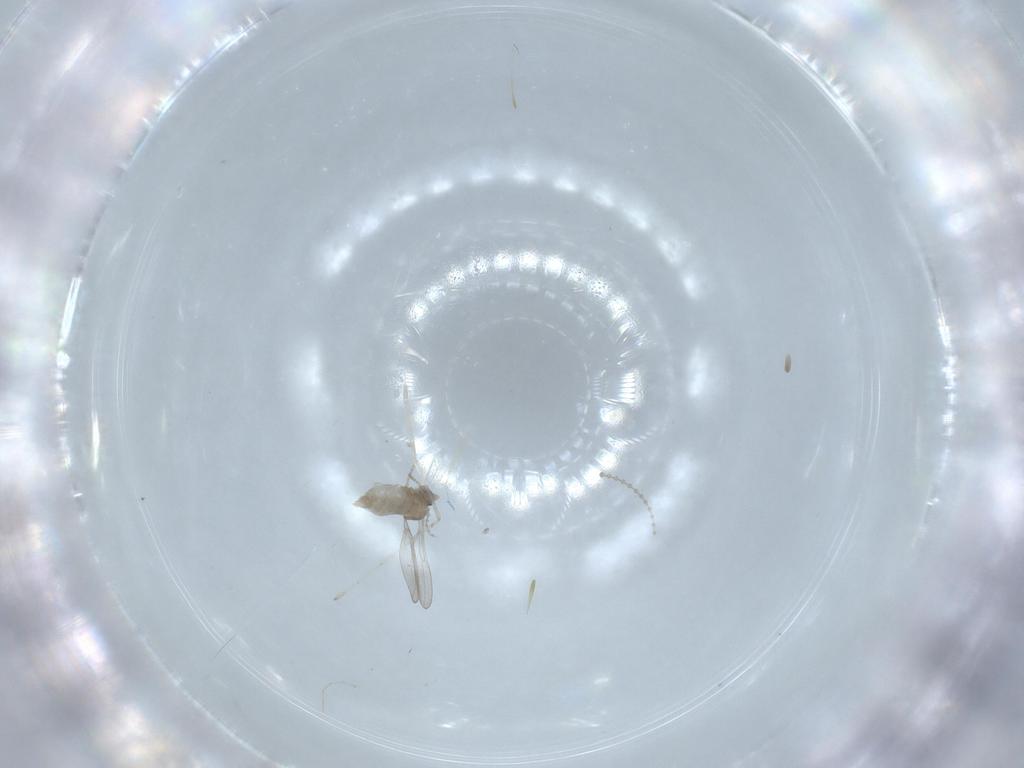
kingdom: Animalia
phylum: Arthropoda
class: Insecta
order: Diptera
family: Cecidomyiidae
